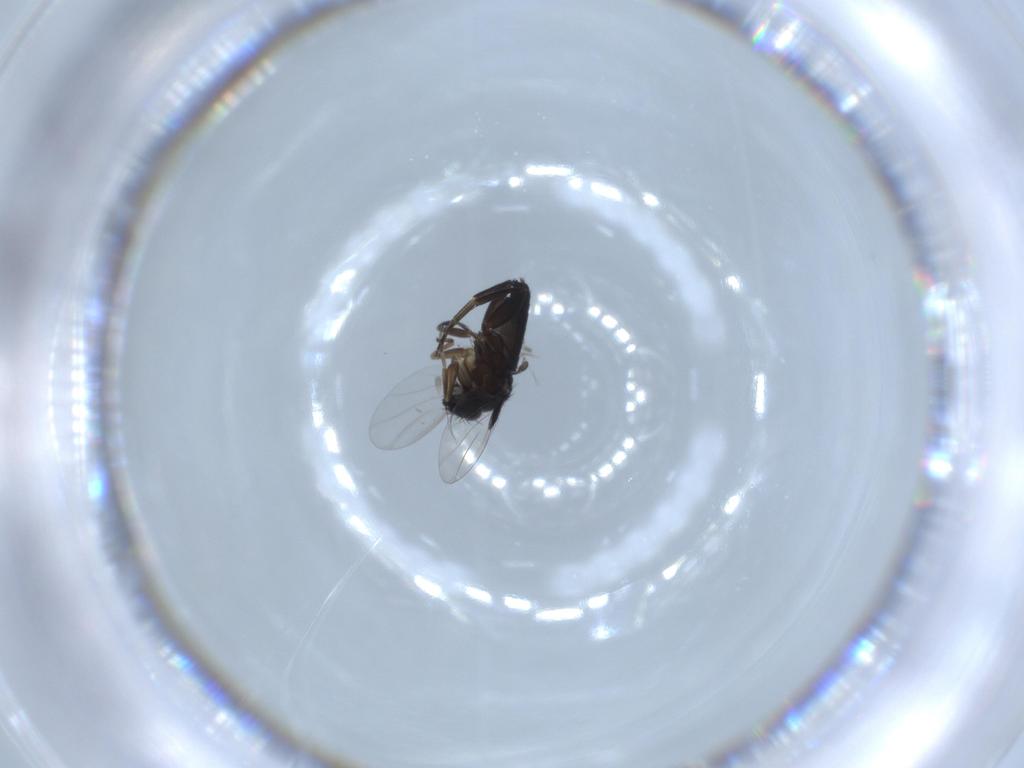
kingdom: Animalia
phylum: Arthropoda
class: Insecta
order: Diptera
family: Phoridae
